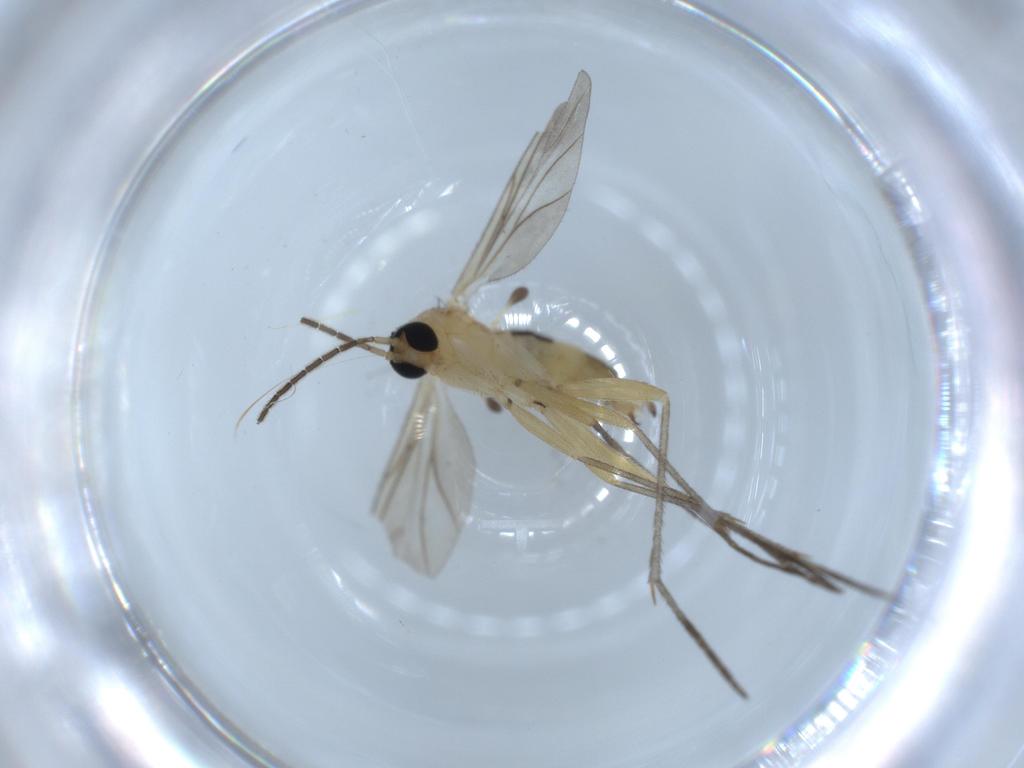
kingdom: Animalia
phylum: Arthropoda
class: Insecta
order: Diptera
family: Sciaridae
